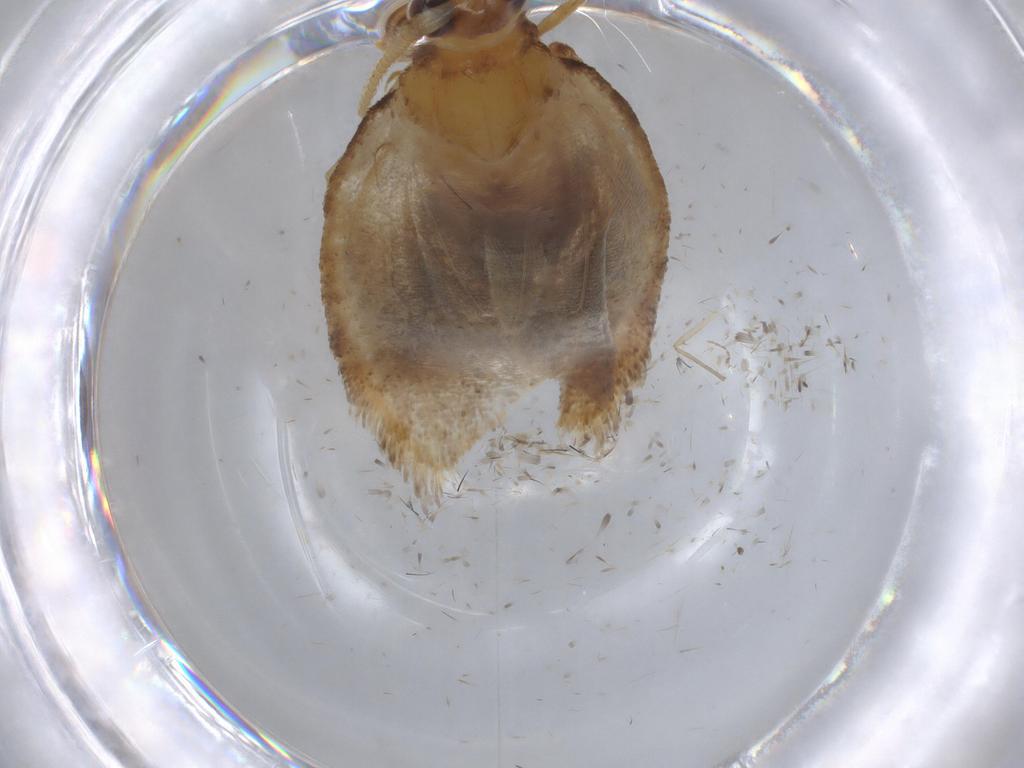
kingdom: Animalia
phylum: Arthropoda
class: Insecta
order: Lepidoptera
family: Lecithoceridae
